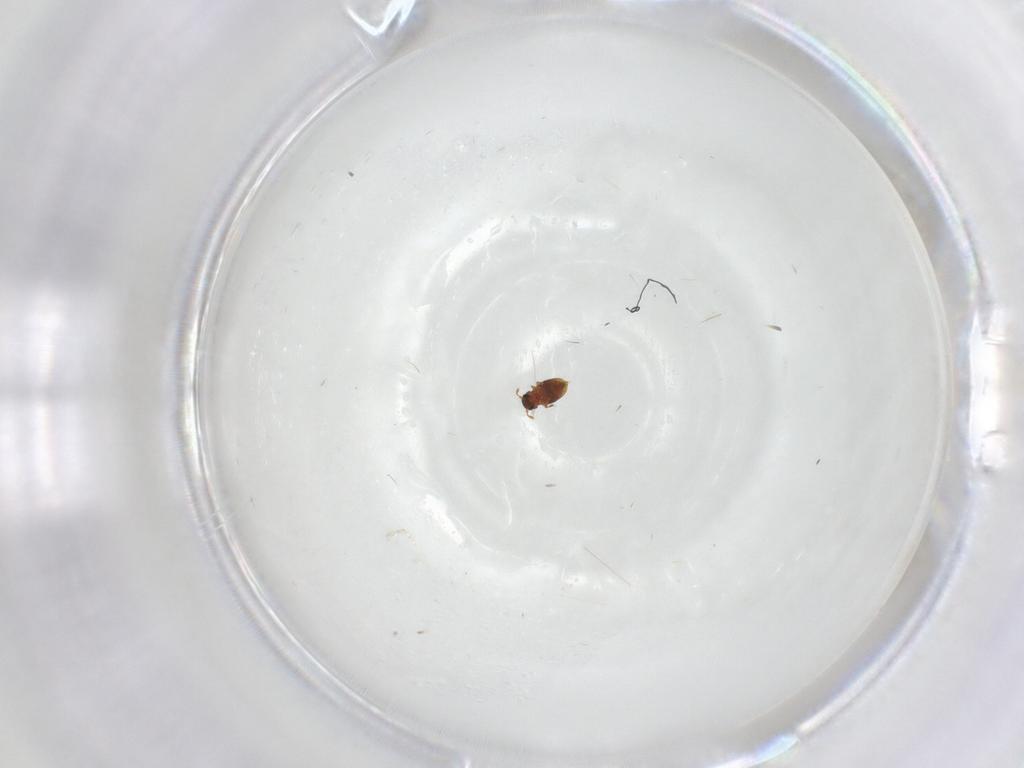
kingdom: Animalia
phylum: Arthropoda
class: Insecta
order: Coleoptera
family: Ptiliidae
